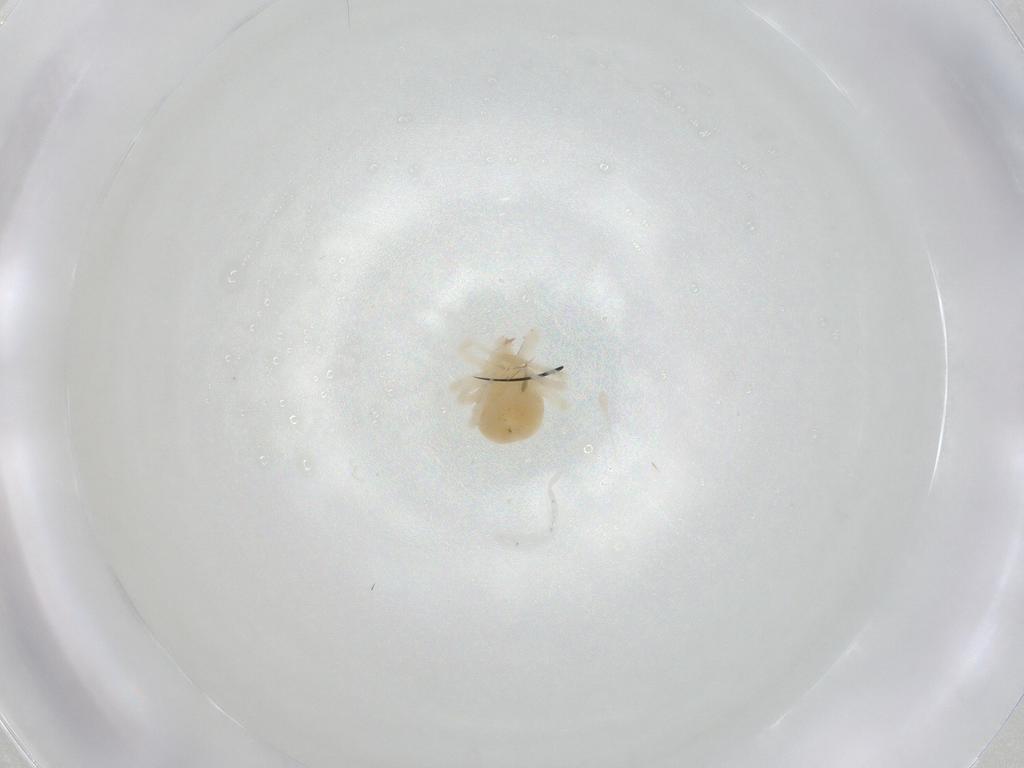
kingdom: Animalia
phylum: Arthropoda
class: Arachnida
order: Trombidiformes
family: Anystidae
